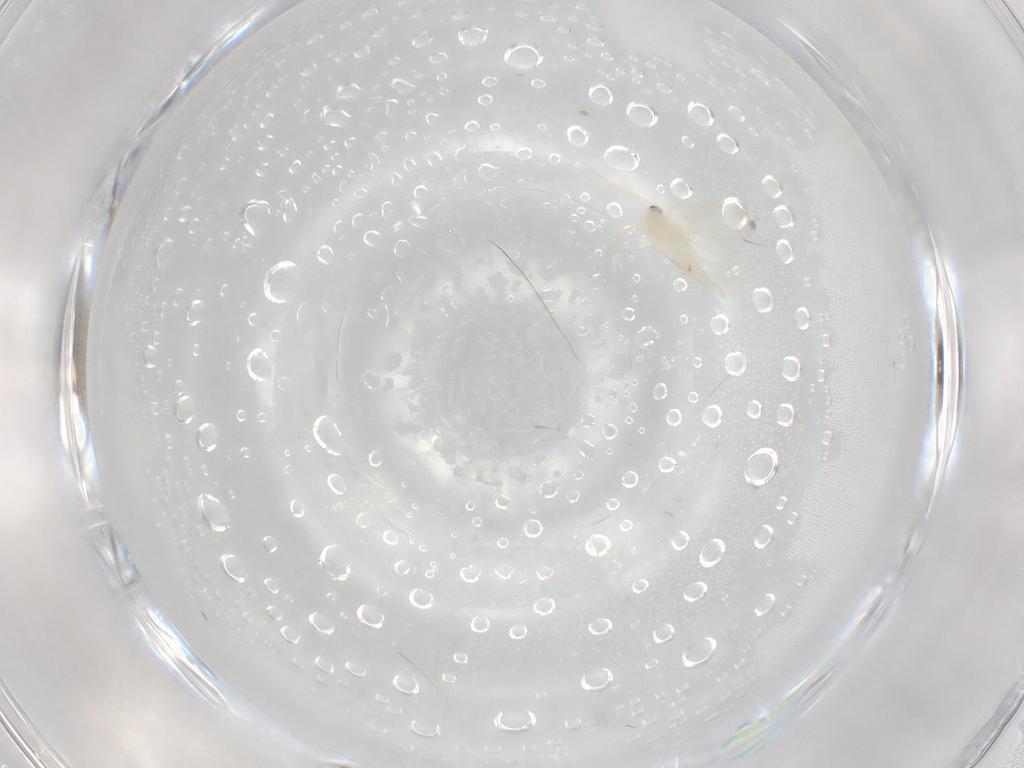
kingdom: Animalia
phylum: Arthropoda
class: Insecta
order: Hemiptera
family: Aleyrodidae
